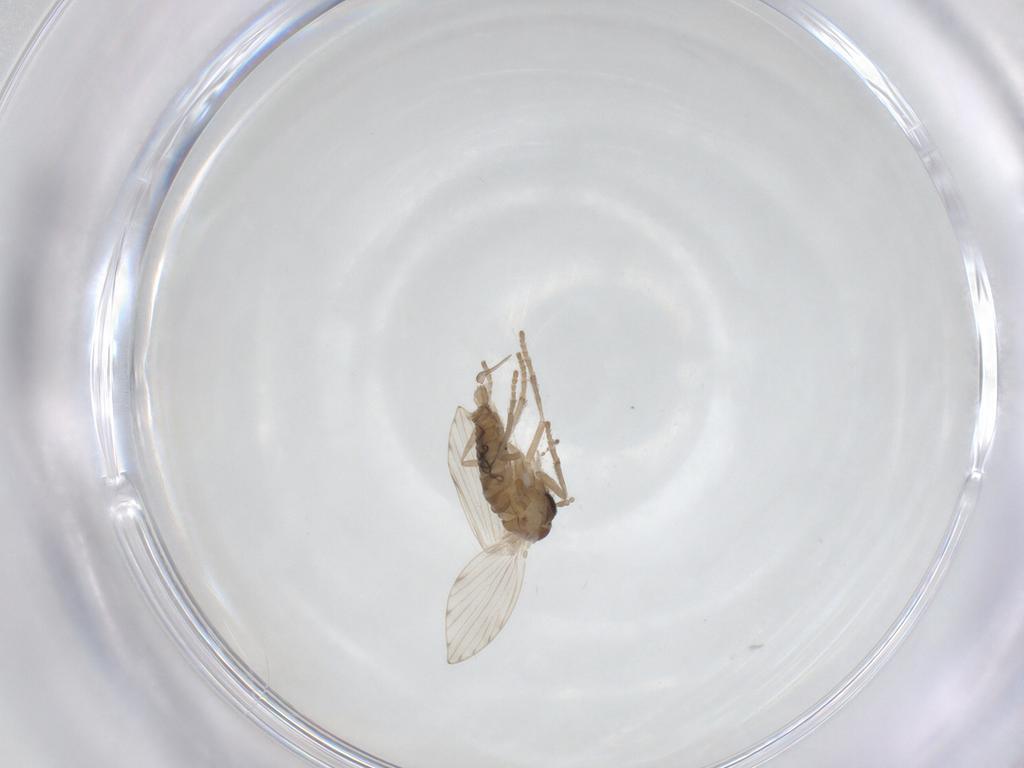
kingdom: Animalia
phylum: Arthropoda
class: Insecta
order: Diptera
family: Psychodidae
